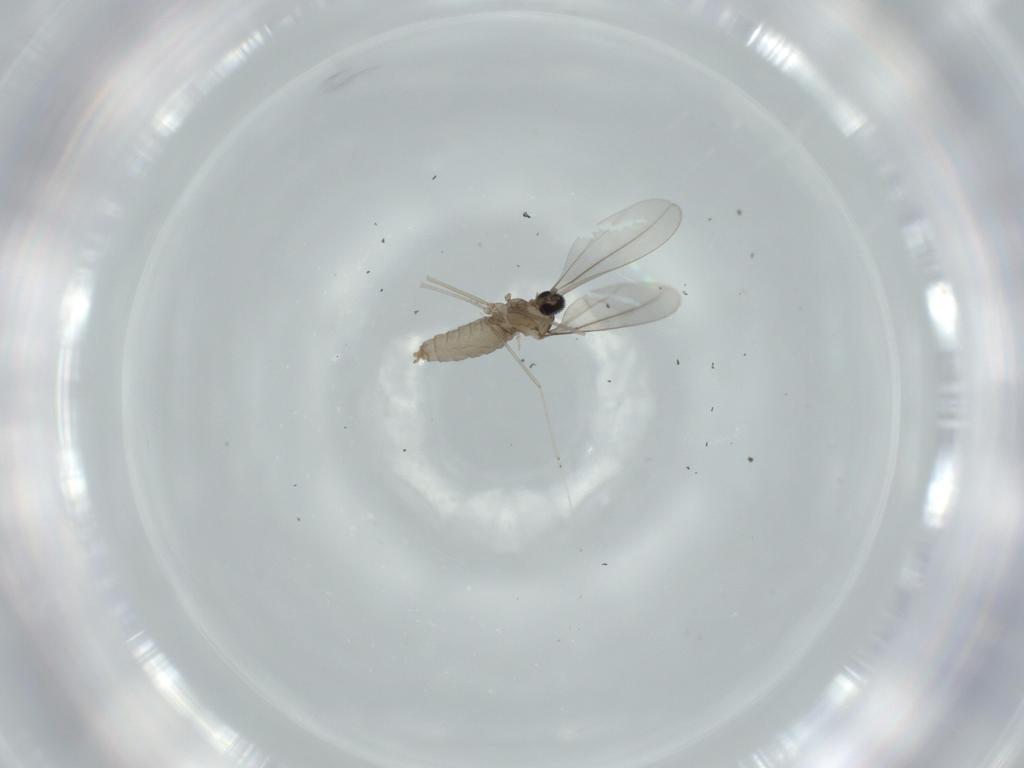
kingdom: Animalia
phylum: Arthropoda
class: Insecta
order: Diptera
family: Cecidomyiidae
